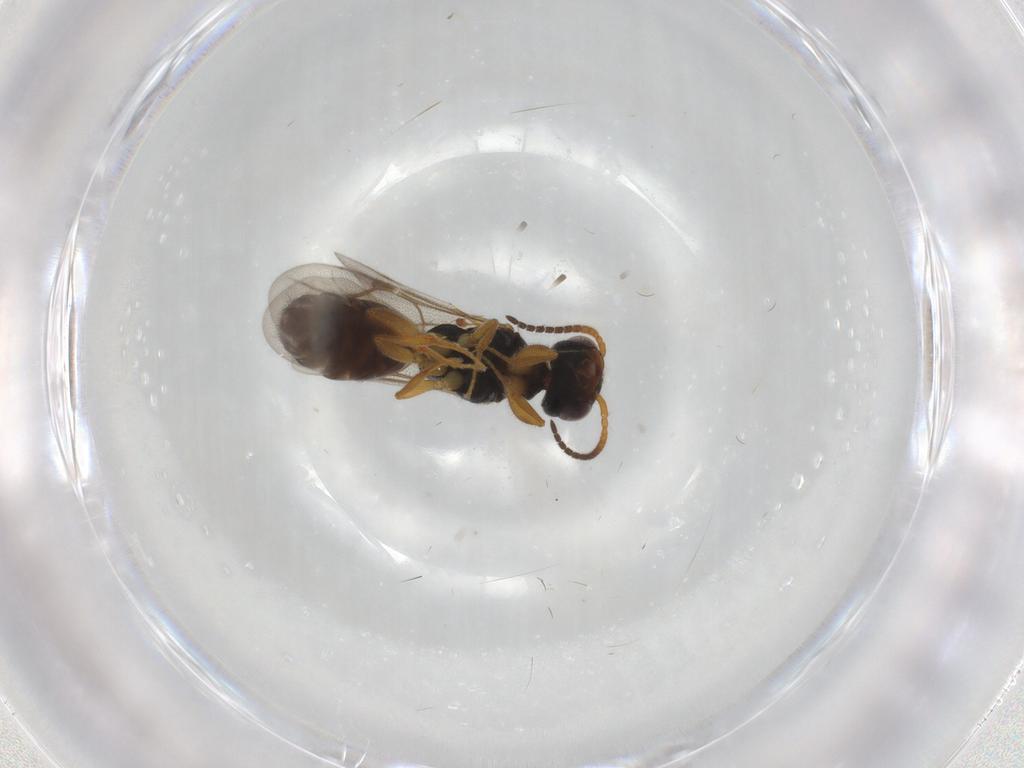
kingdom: Animalia
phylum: Arthropoda
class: Insecta
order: Hymenoptera
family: Bethylidae
